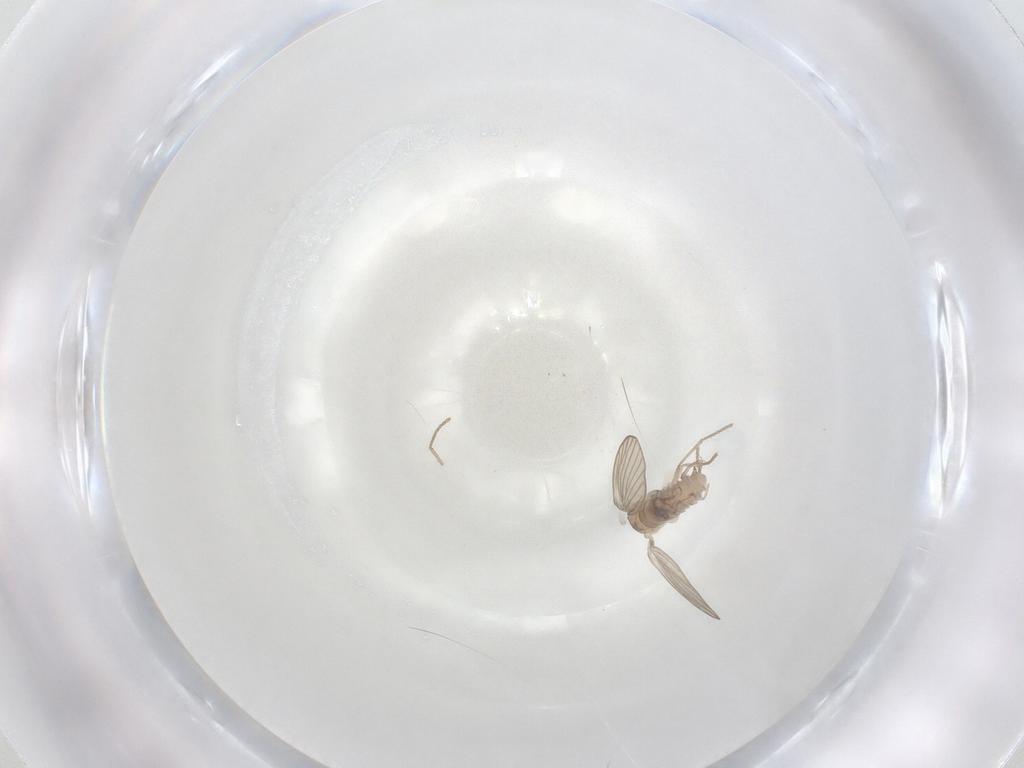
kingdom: Animalia
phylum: Arthropoda
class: Insecta
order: Diptera
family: Psychodidae
